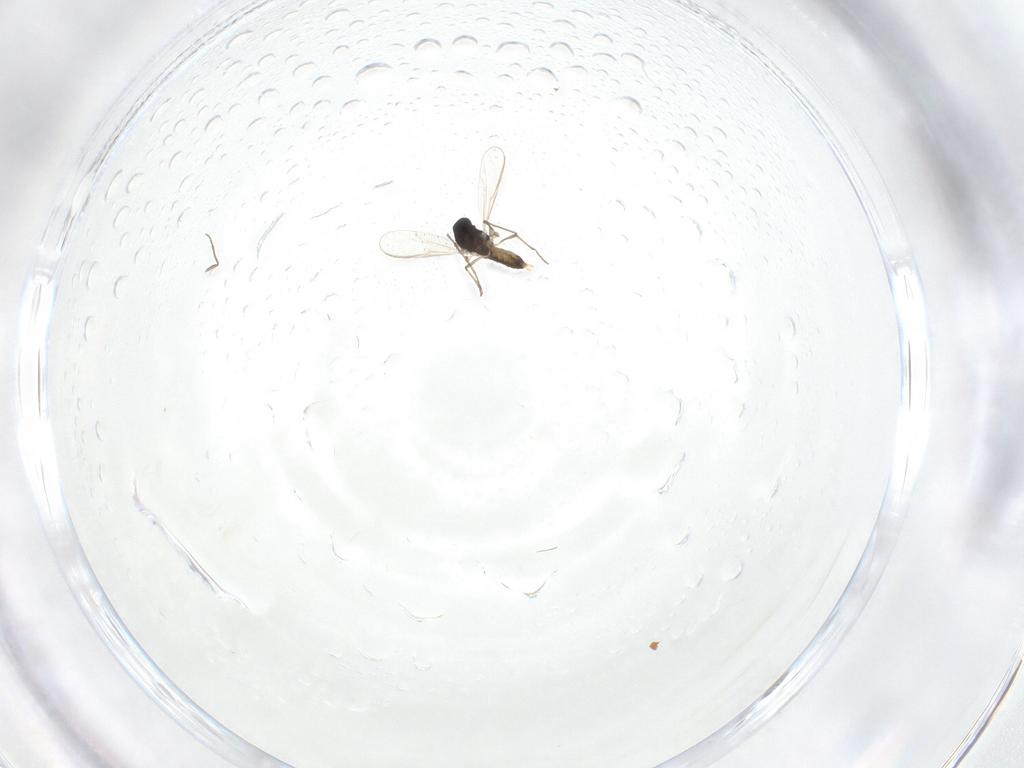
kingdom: Animalia
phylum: Arthropoda
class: Insecta
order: Diptera
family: Chironomidae
